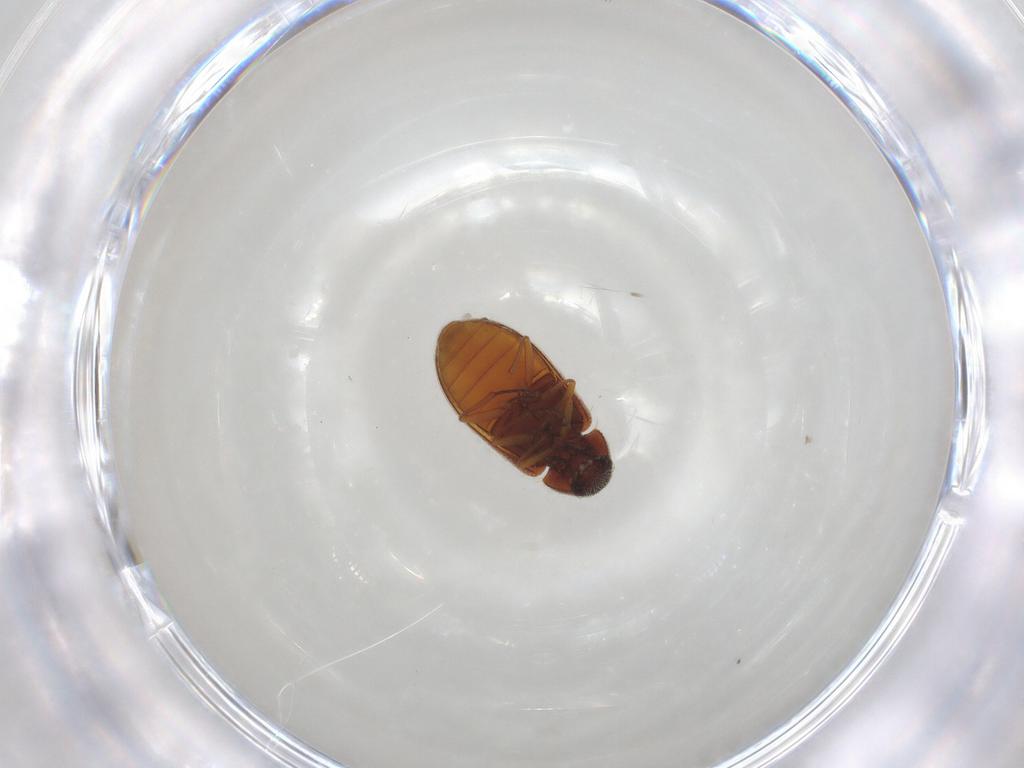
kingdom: Animalia
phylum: Arthropoda
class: Insecta
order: Coleoptera
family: Rhadalidae
